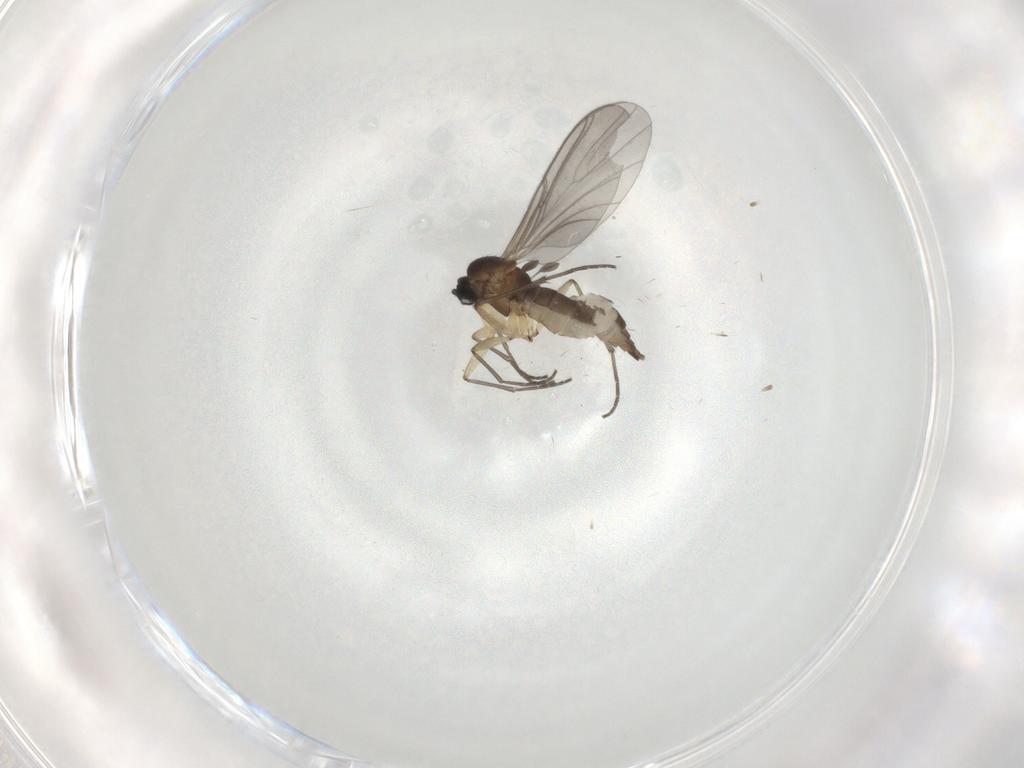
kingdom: Animalia
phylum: Arthropoda
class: Insecta
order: Diptera
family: Sciaridae
